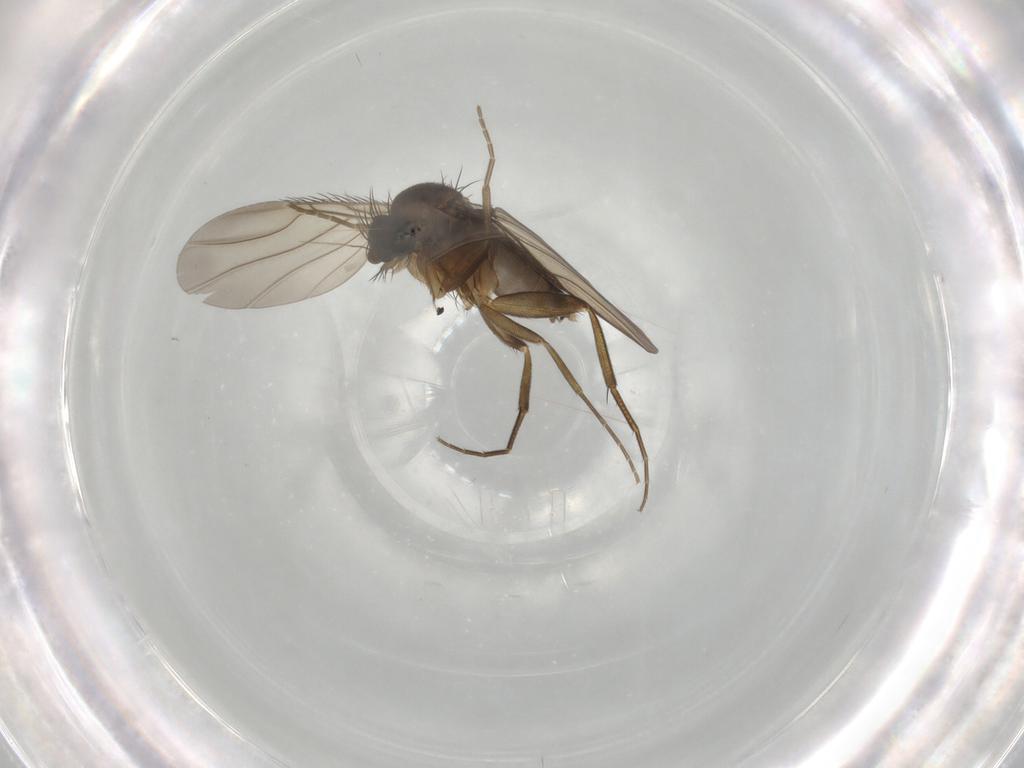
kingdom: Animalia
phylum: Arthropoda
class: Insecta
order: Diptera
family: Phoridae
